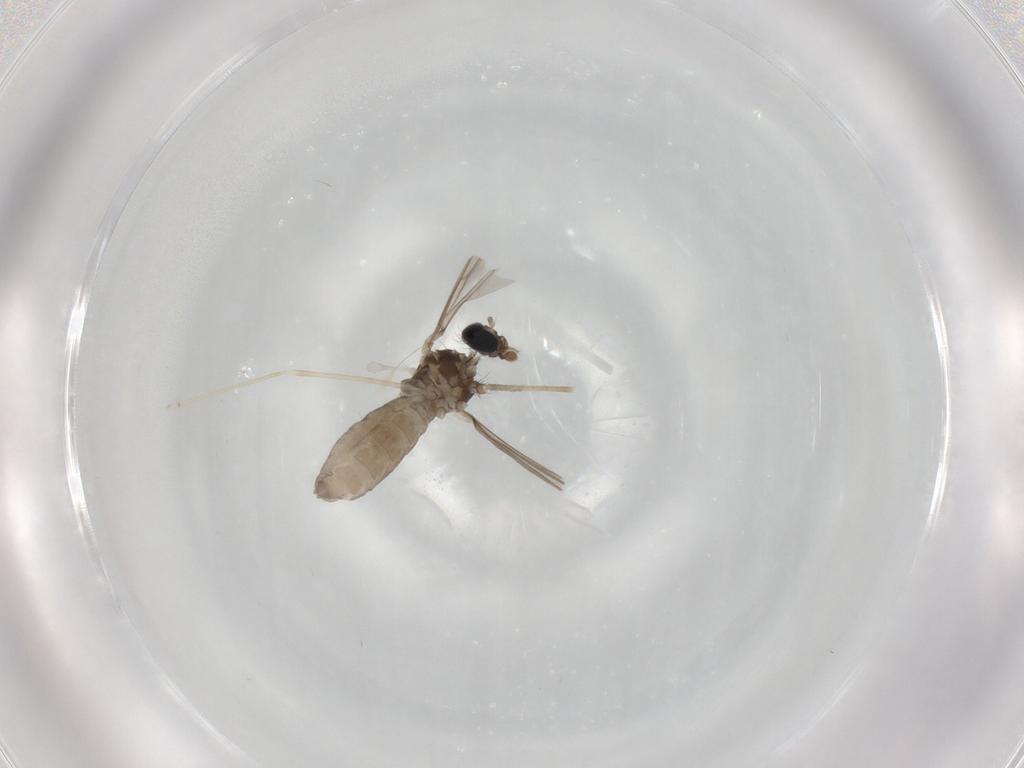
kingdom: Animalia
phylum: Arthropoda
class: Insecta
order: Diptera
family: Cecidomyiidae
